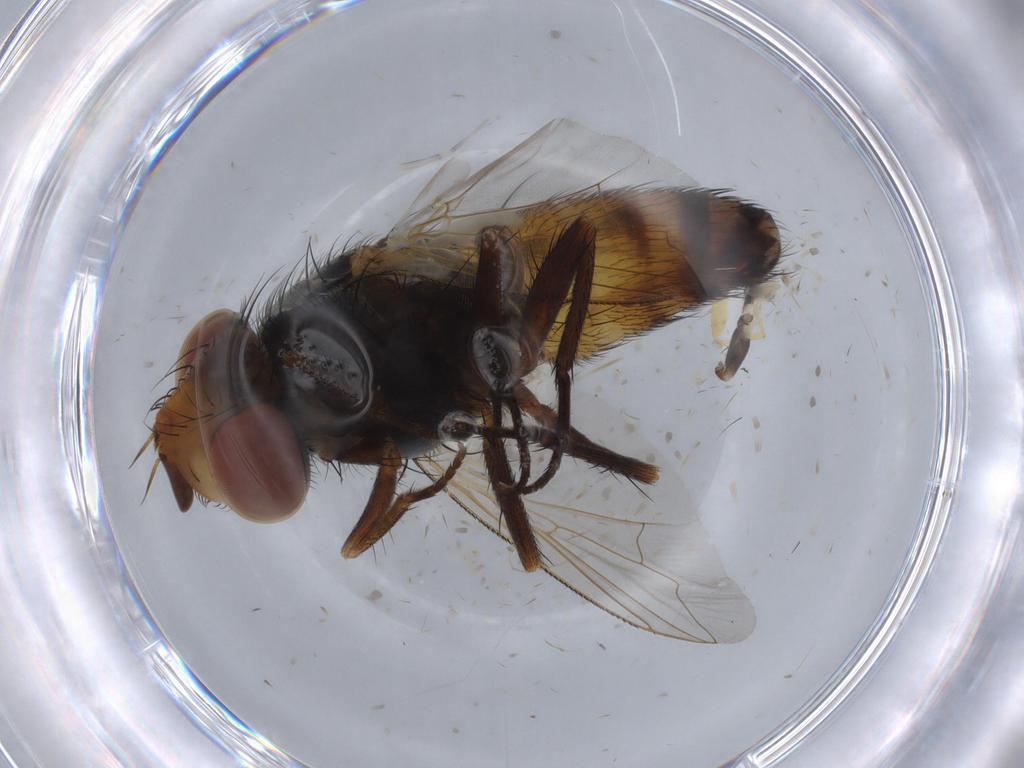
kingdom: Animalia
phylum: Arthropoda
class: Insecta
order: Diptera
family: Sarcophagidae
